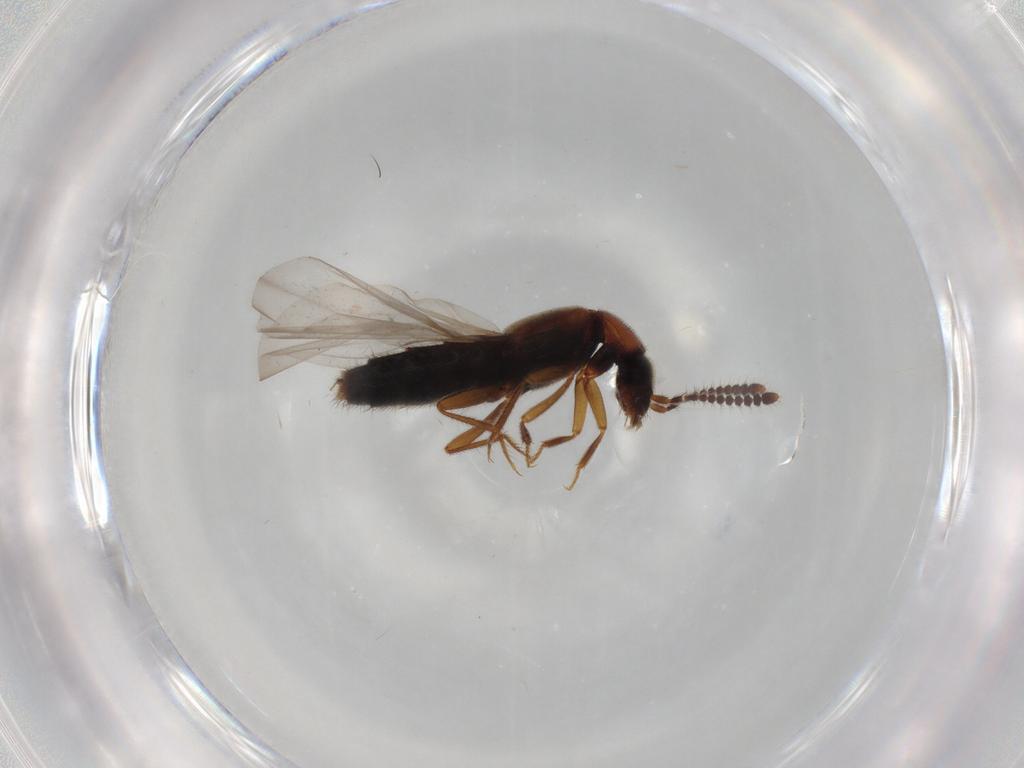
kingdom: Animalia
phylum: Arthropoda
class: Insecta
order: Coleoptera
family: Staphylinidae
